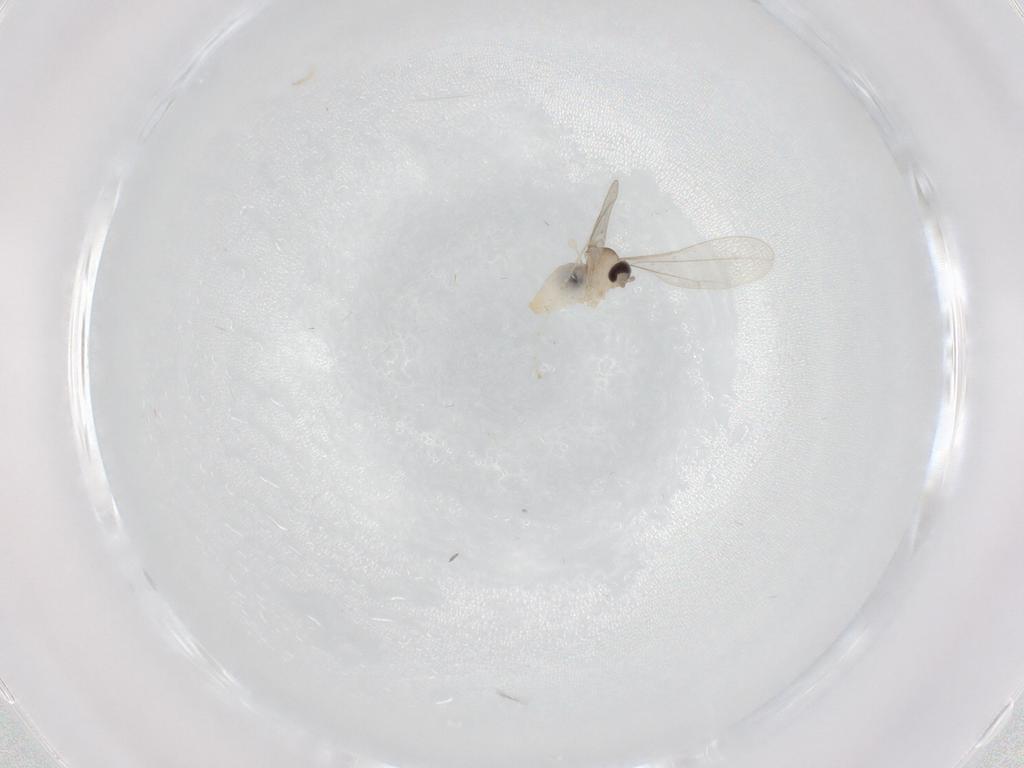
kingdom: Animalia
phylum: Arthropoda
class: Insecta
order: Diptera
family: Cecidomyiidae
